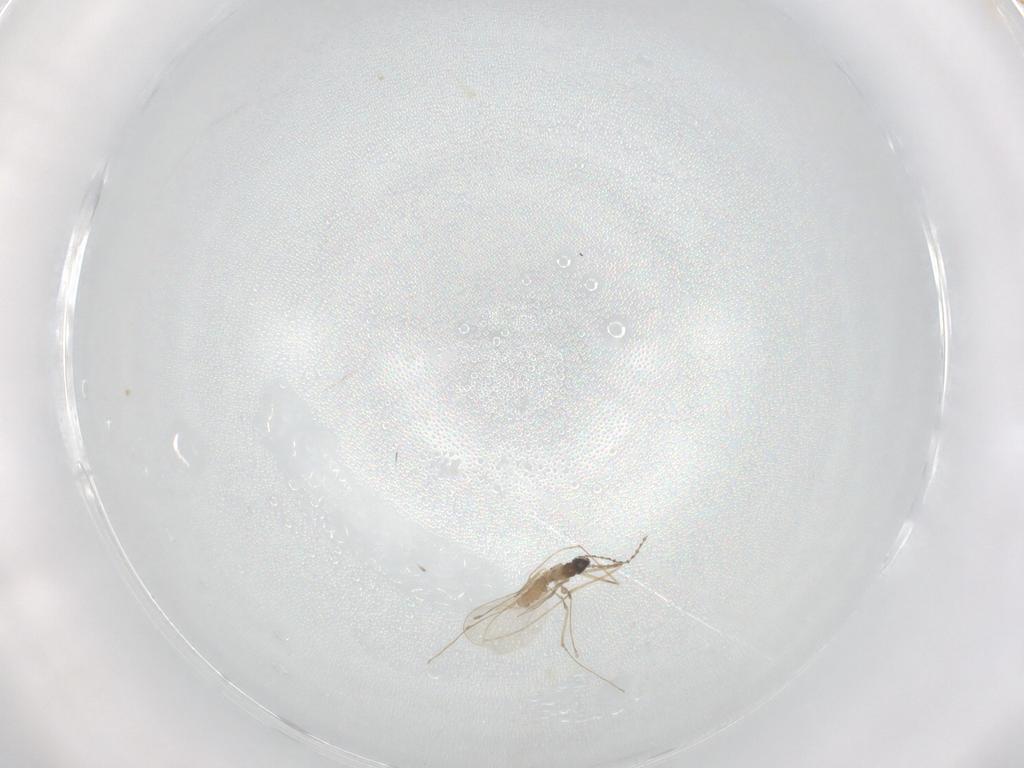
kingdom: Animalia
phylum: Arthropoda
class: Insecta
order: Diptera
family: Cecidomyiidae
